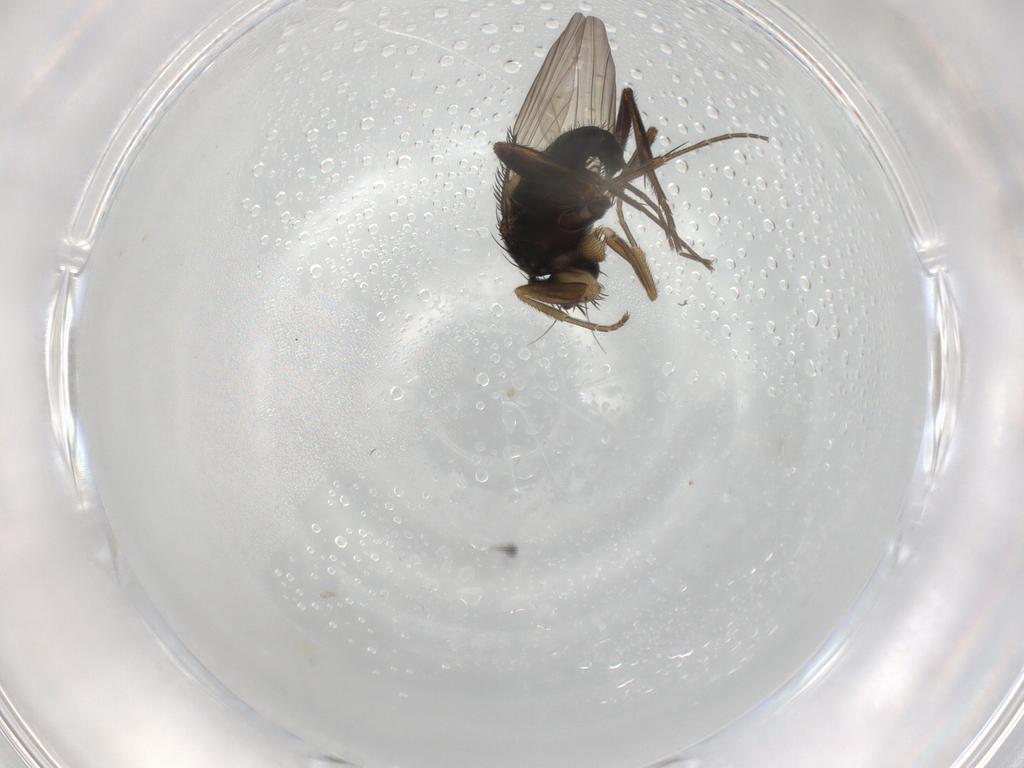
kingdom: Animalia
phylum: Arthropoda
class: Insecta
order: Diptera
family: Phoridae
